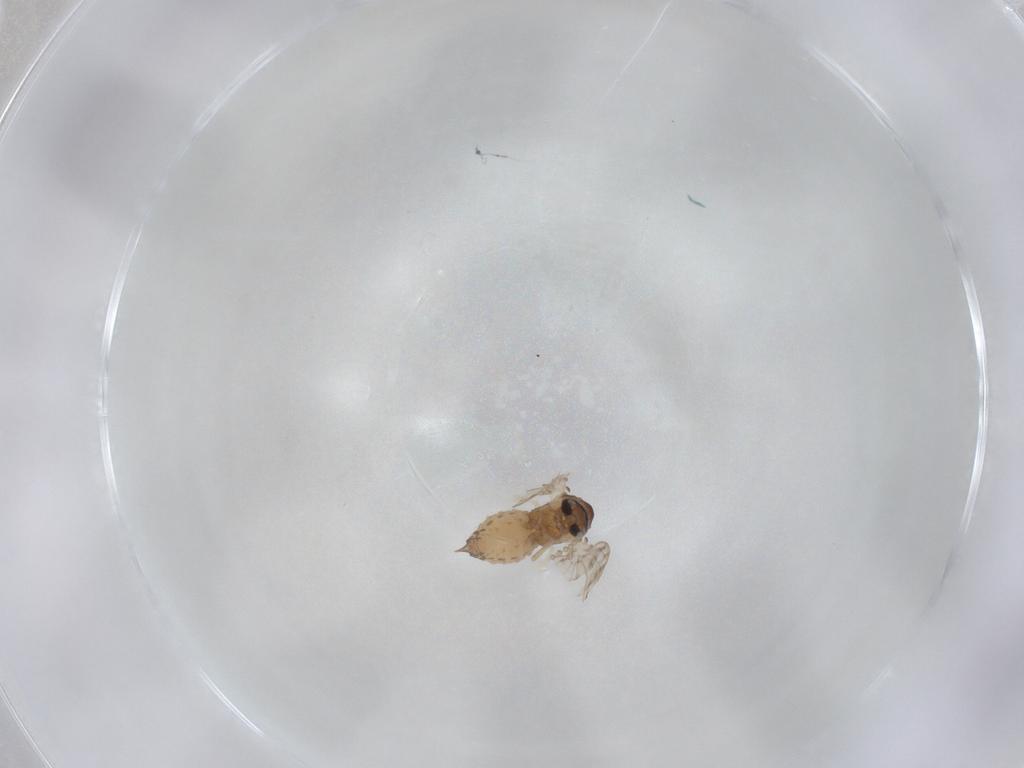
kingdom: Animalia
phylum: Arthropoda
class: Insecta
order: Diptera
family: Psychodidae
